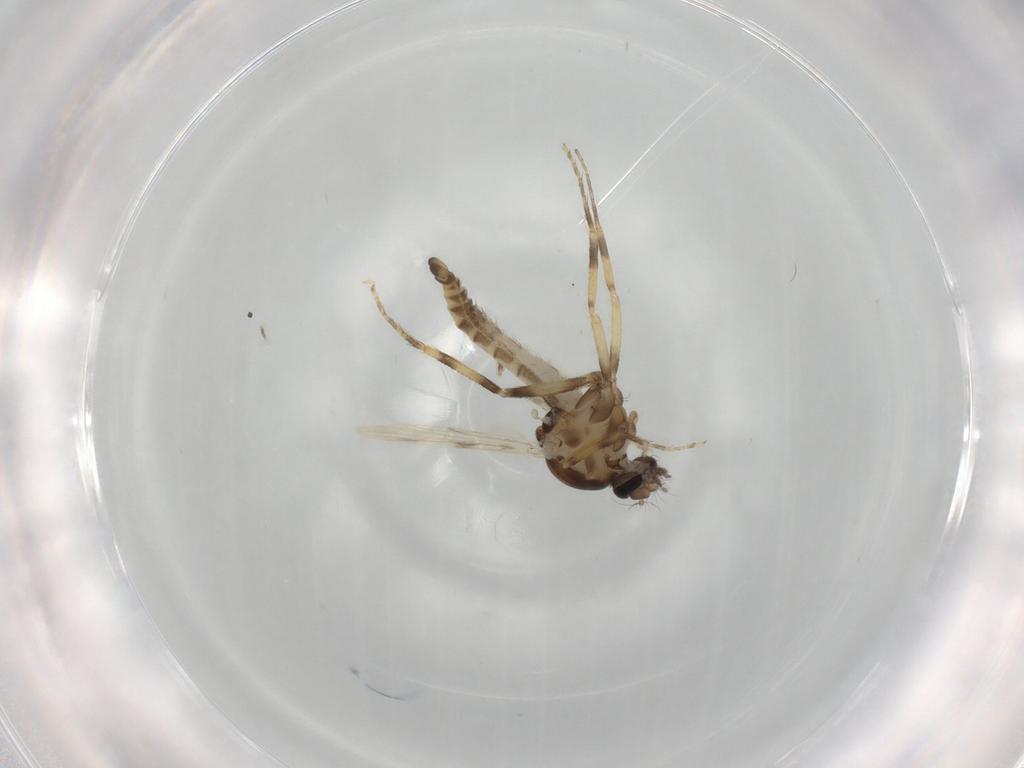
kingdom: Animalia
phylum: Arthropoda
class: Insecta
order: Diptera
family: Ceratopogonidae
